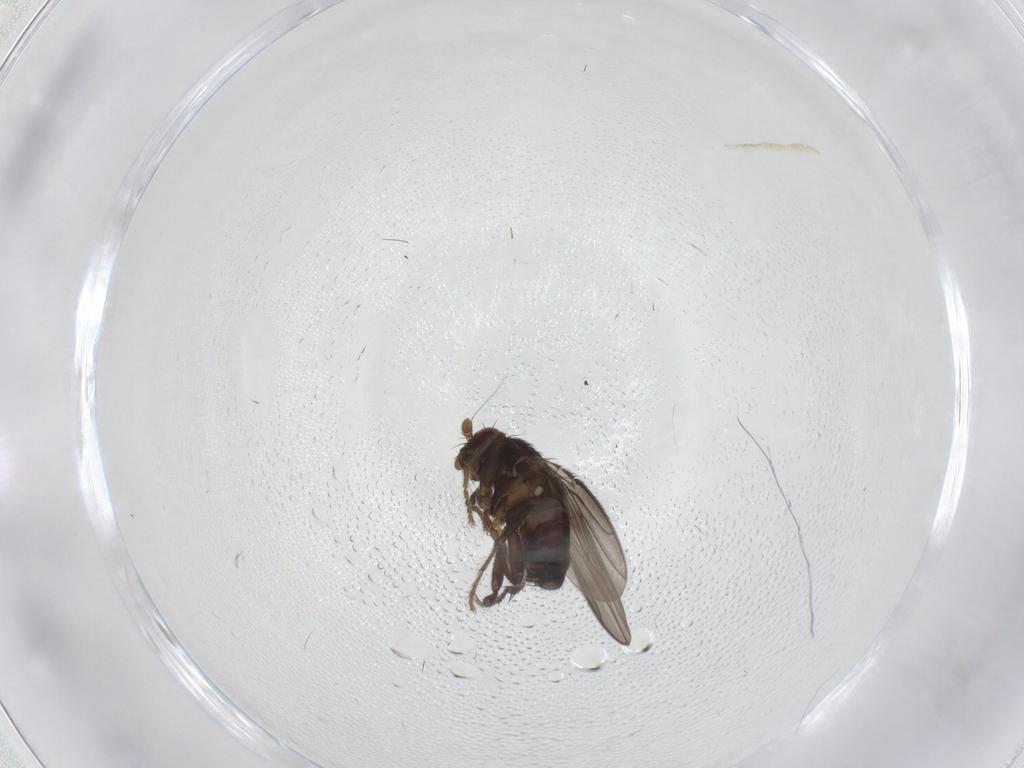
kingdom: Animalia
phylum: Arthropoda
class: Insecta
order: Diptera
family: Sphaeroceridae
